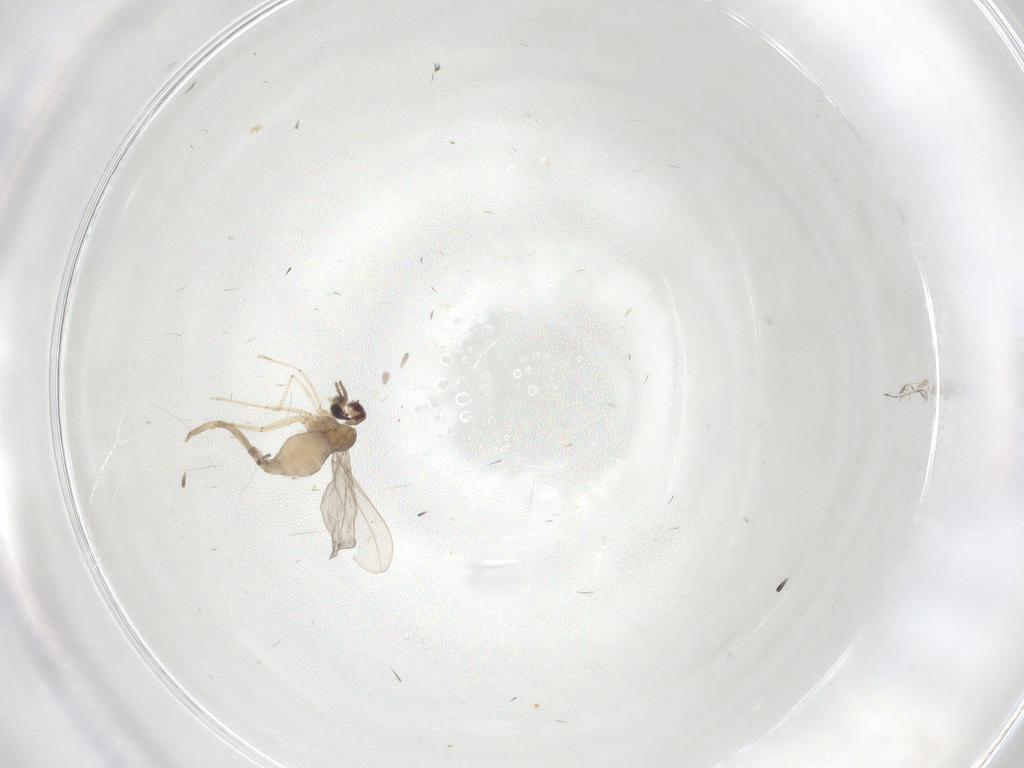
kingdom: Animalia
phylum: Arthropoda
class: Insecta
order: Diptera
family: Cecidomyiidae
